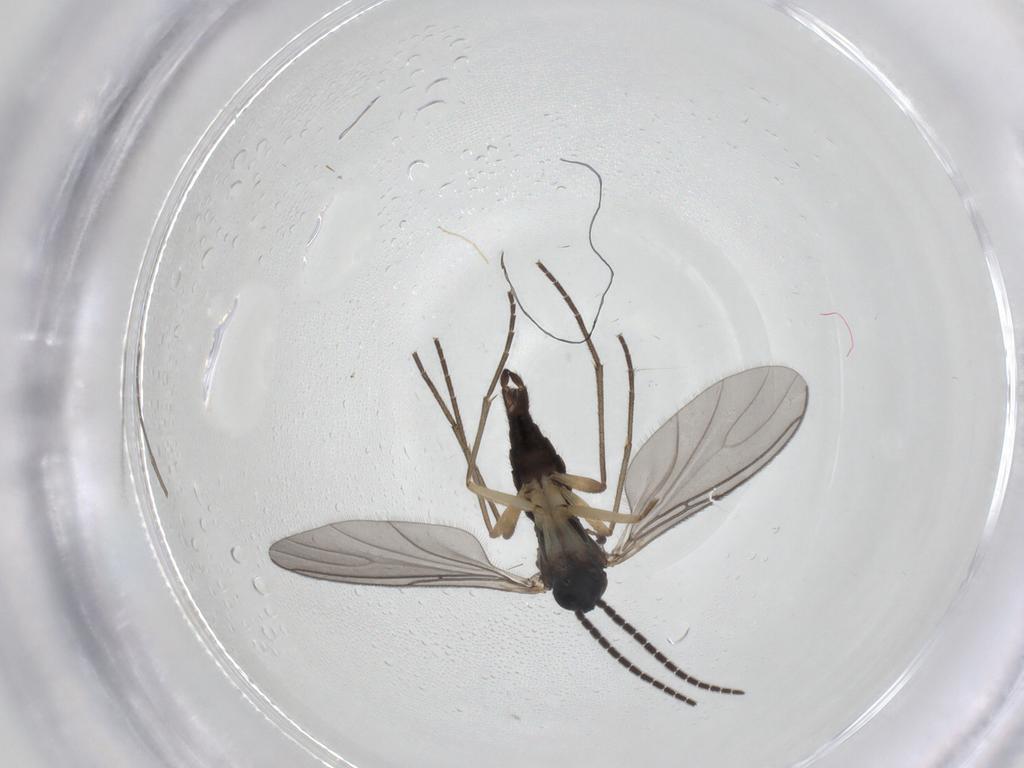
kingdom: Animalia
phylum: Arthropoda
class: Insecta
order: Diptera
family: Sciaridae
